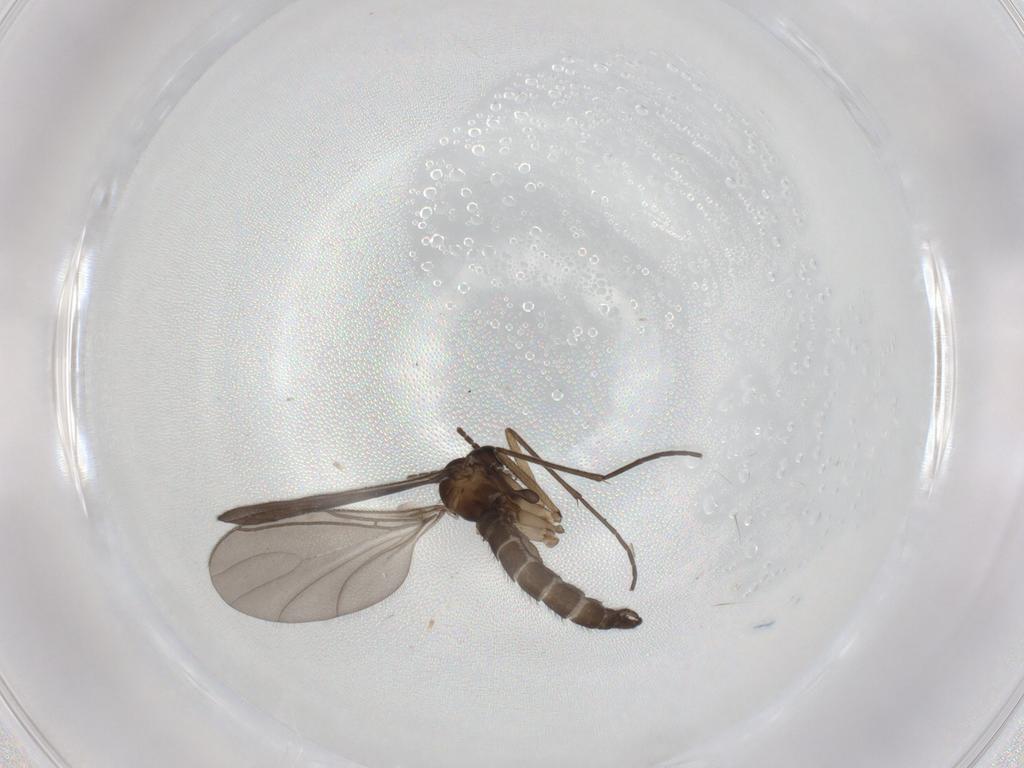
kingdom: Animalia
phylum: Arthropoda
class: Insecta
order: Diptera
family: Sciaridae
